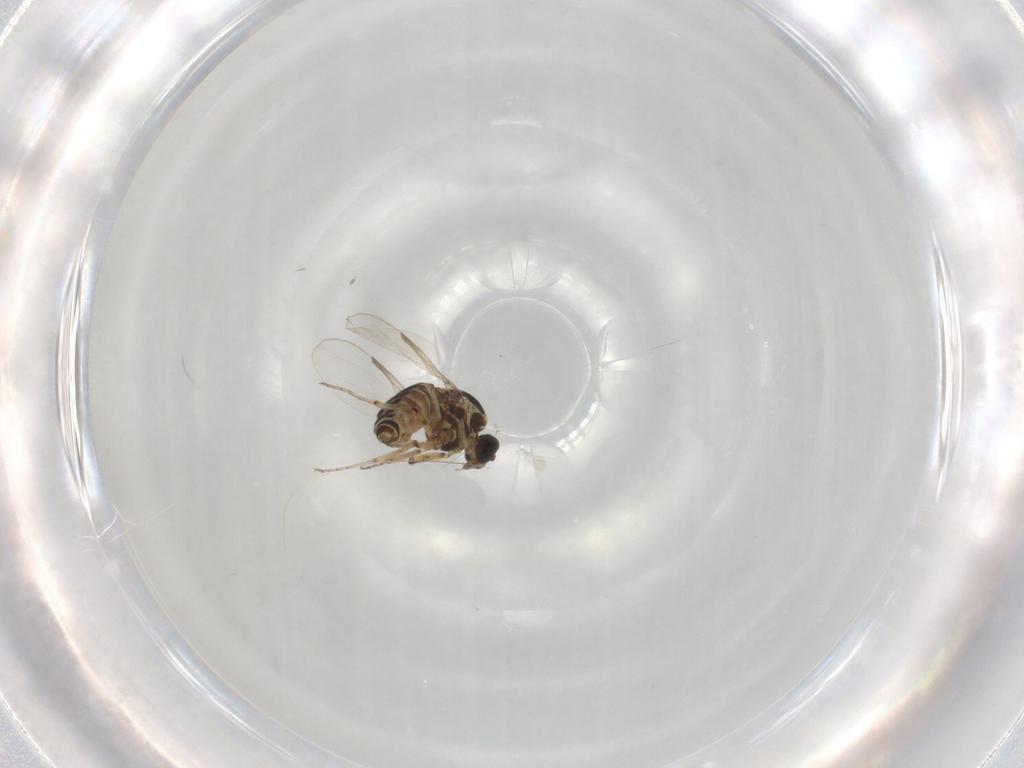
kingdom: Animalia
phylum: Arthropoda
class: Insecta
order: Diptera
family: Ceratopogonidae
